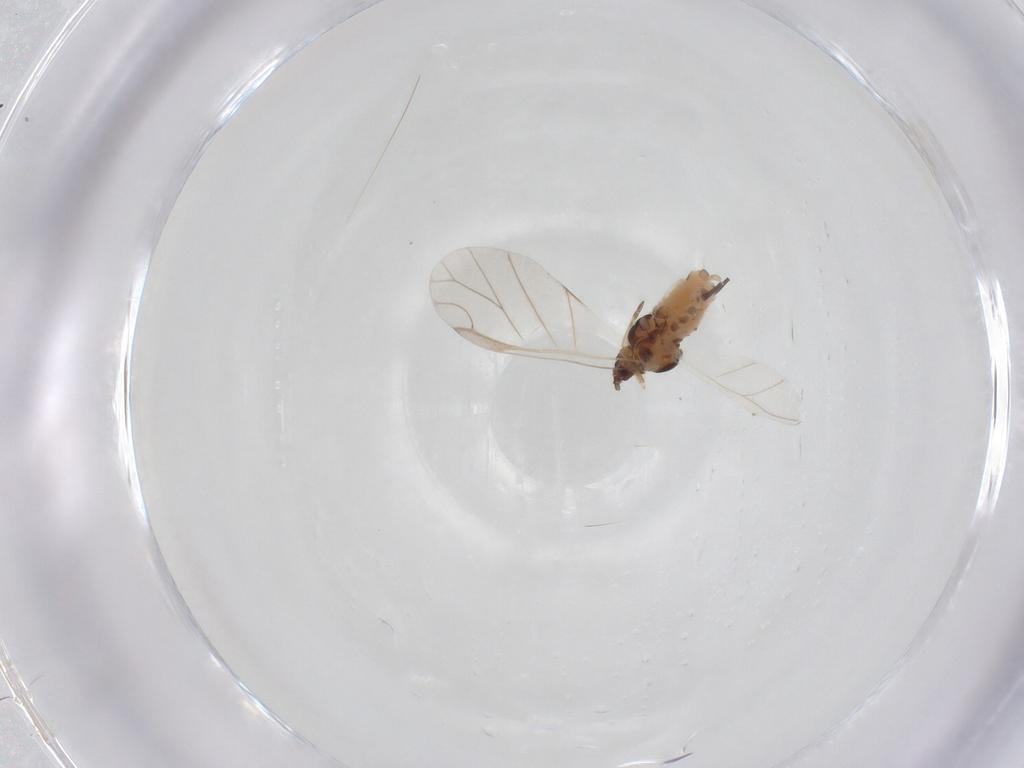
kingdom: Animalia
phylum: Arthropoda
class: Insecta
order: Hemiptera
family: Aphididae
